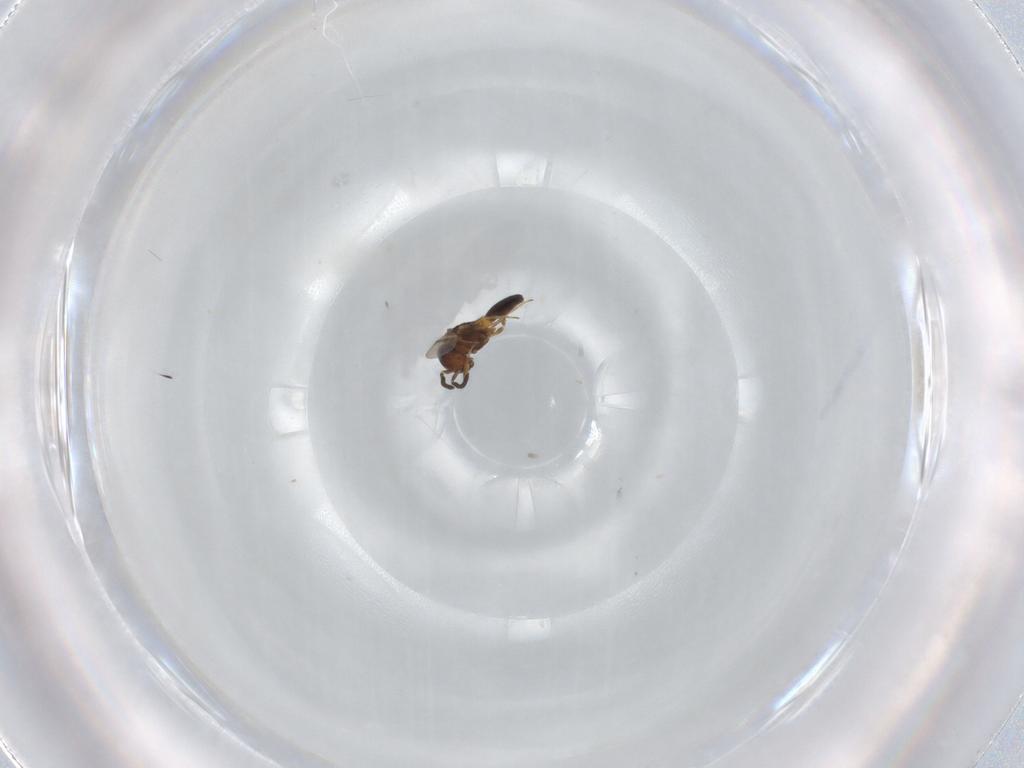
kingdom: Animalia
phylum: Arthropoda
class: Insecta
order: Hymenoptera
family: Scelionidae
